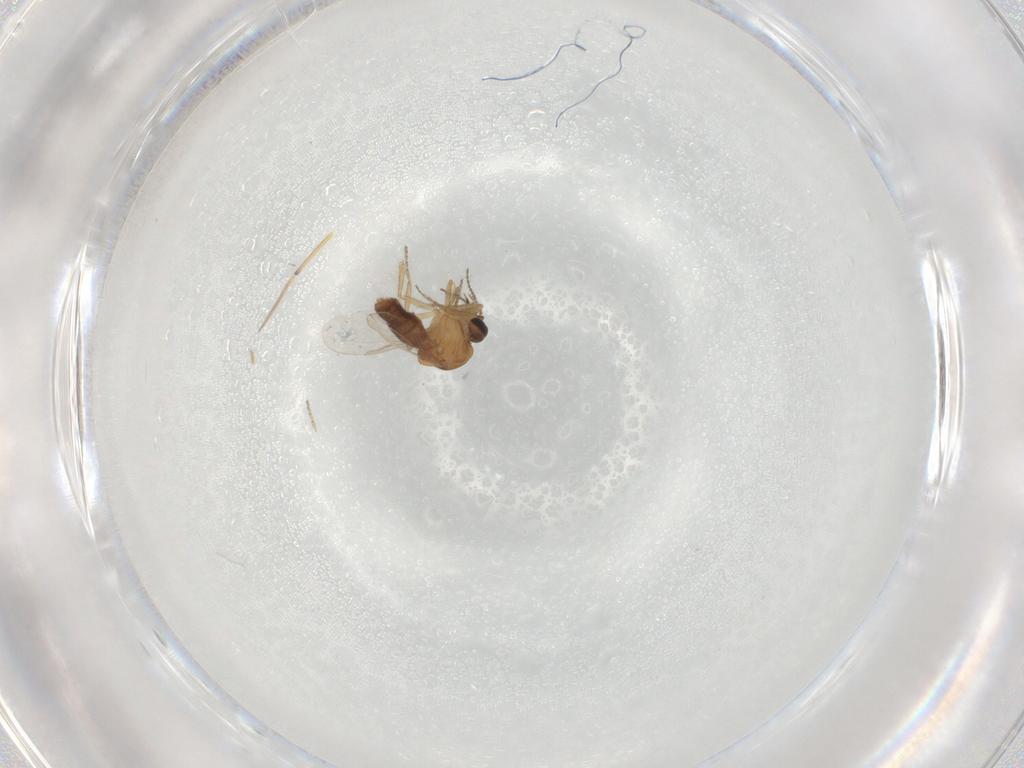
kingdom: Animalia
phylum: Arthropoda
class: Insecta
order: Diptera
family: Ceratopogonidae
